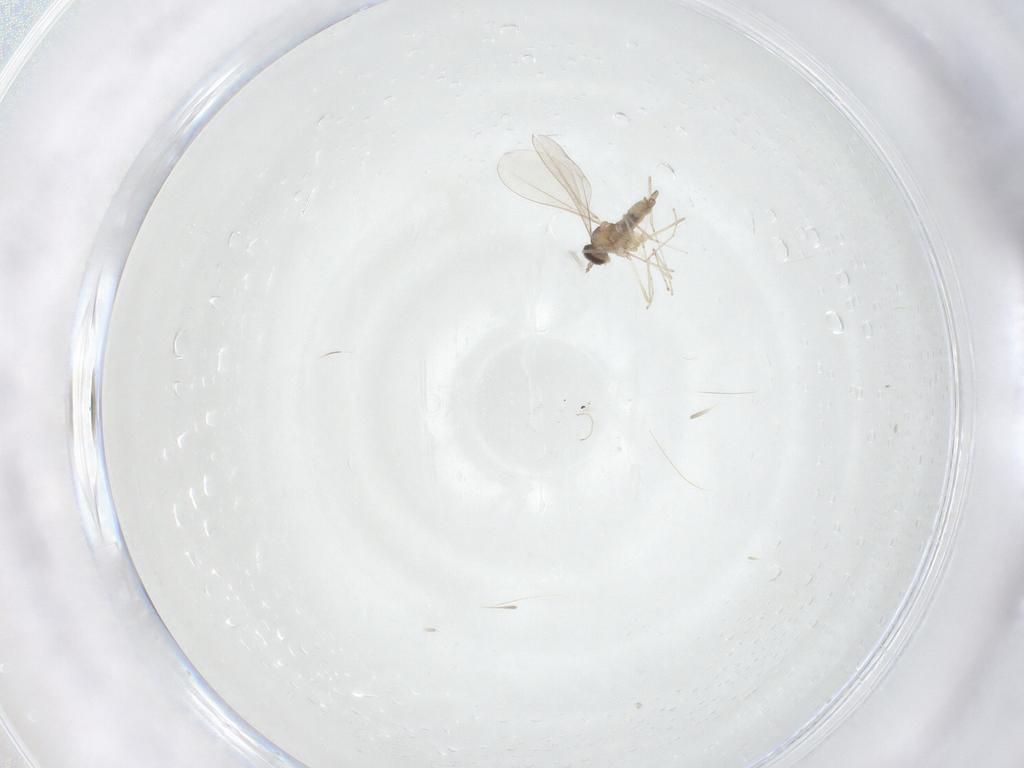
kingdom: Animalia
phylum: Arthropoda
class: Insecta
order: Diptera
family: Cecidomyiidae
